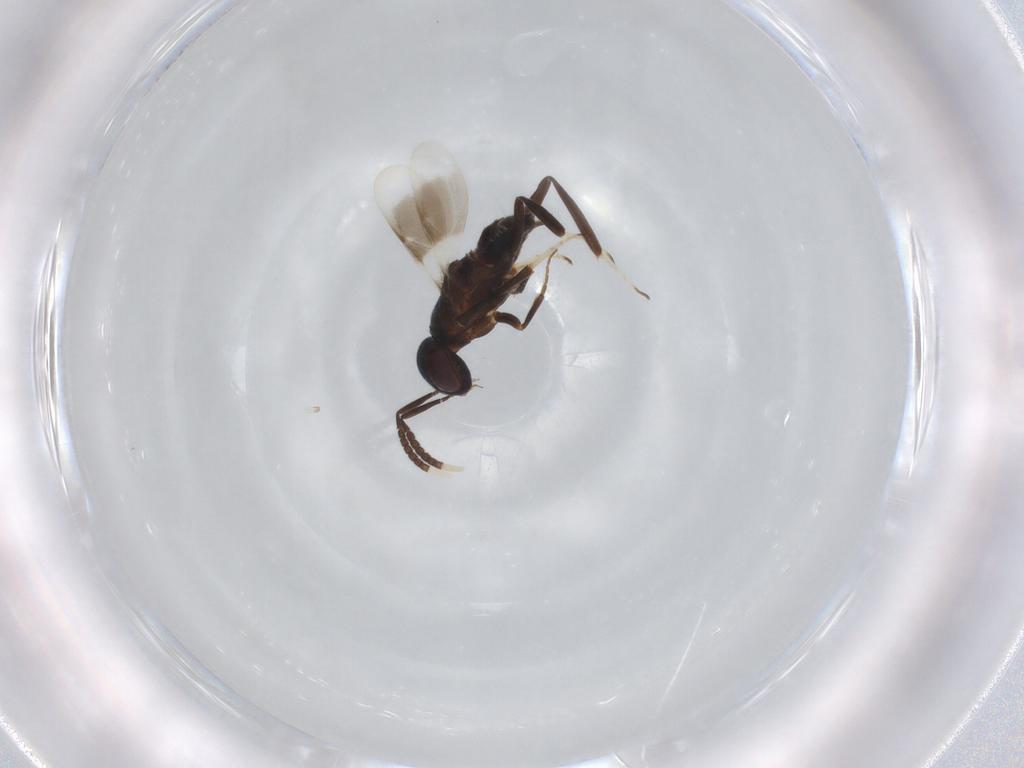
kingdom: Animalia
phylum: Arthropoda
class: Insecta
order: Hymenoptera
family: Encyrtidae
